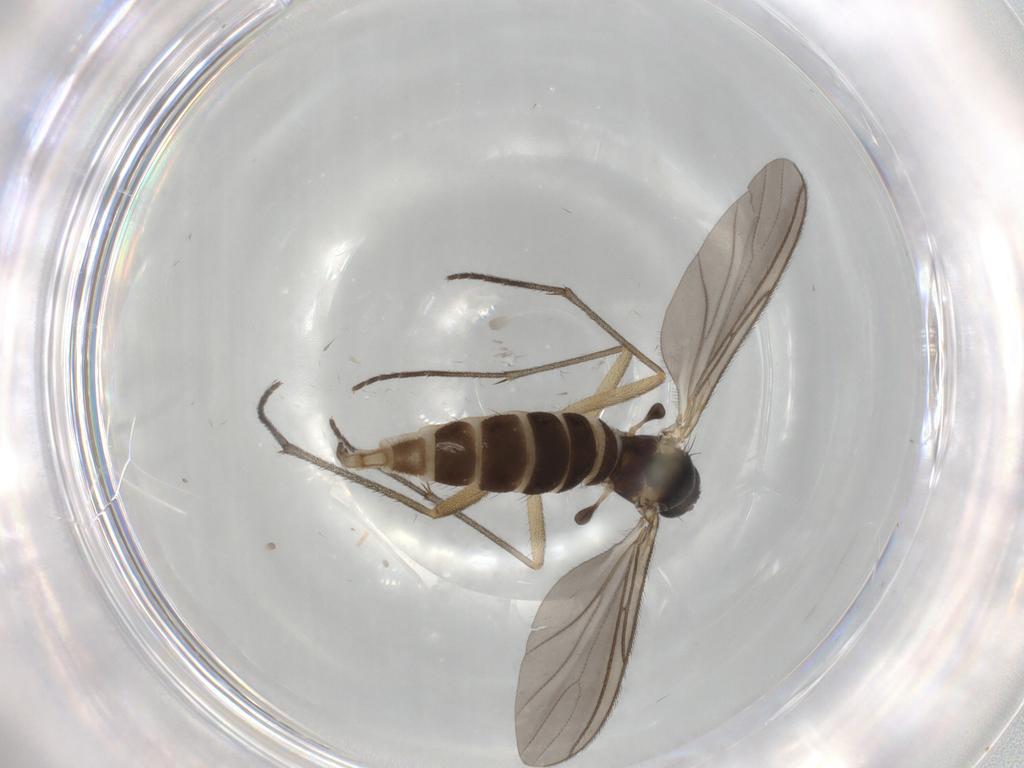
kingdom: Animalia
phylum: Arthropoda
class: Insecta
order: Diptera
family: Sciaridae
